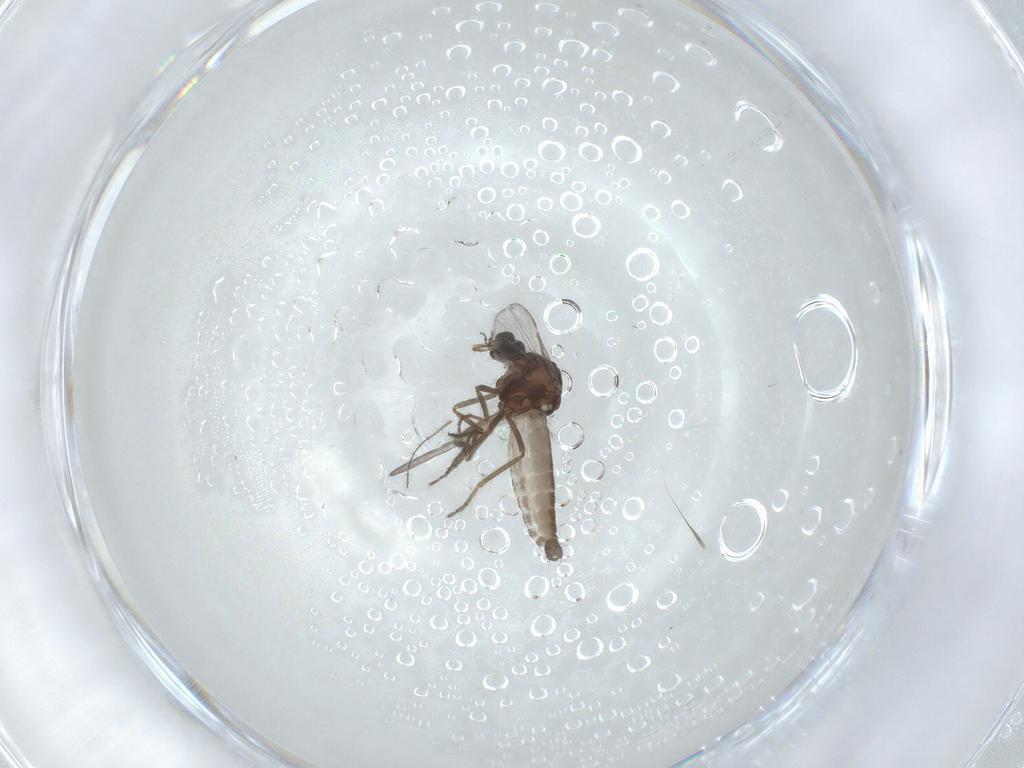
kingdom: Animalia
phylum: Arthropoda
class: Insecta
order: Diptera
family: Ceratopogonidae
